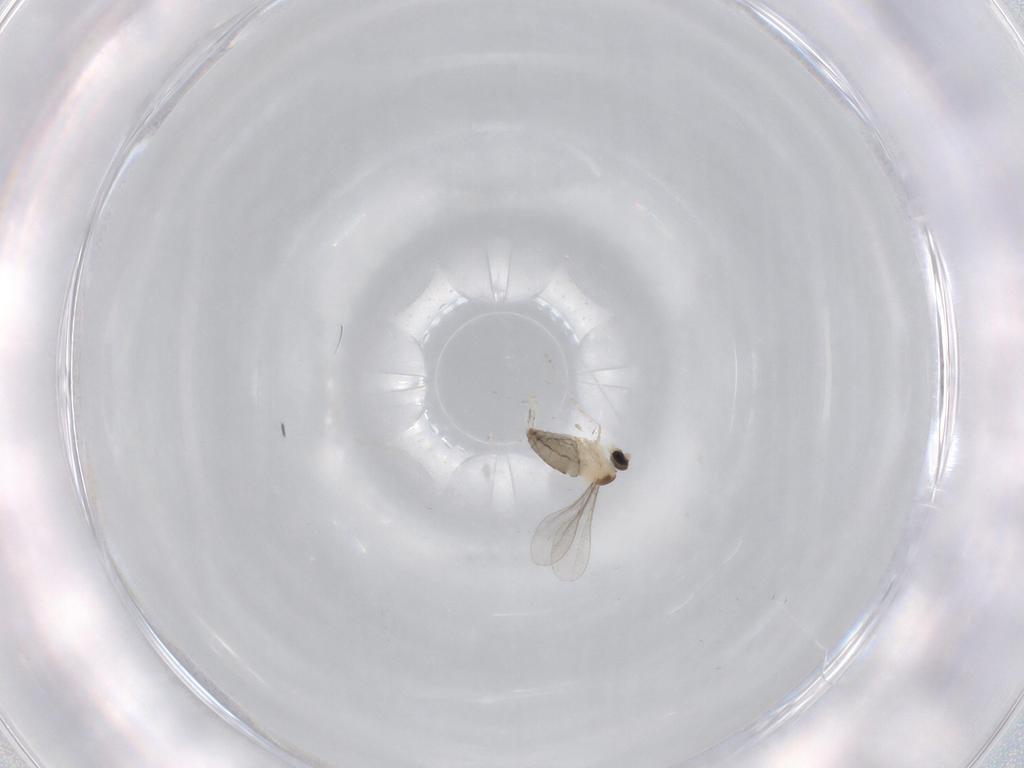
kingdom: Animalia
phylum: Arthropoda
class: Insecta
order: Diptera
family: Cecidomyiidae
